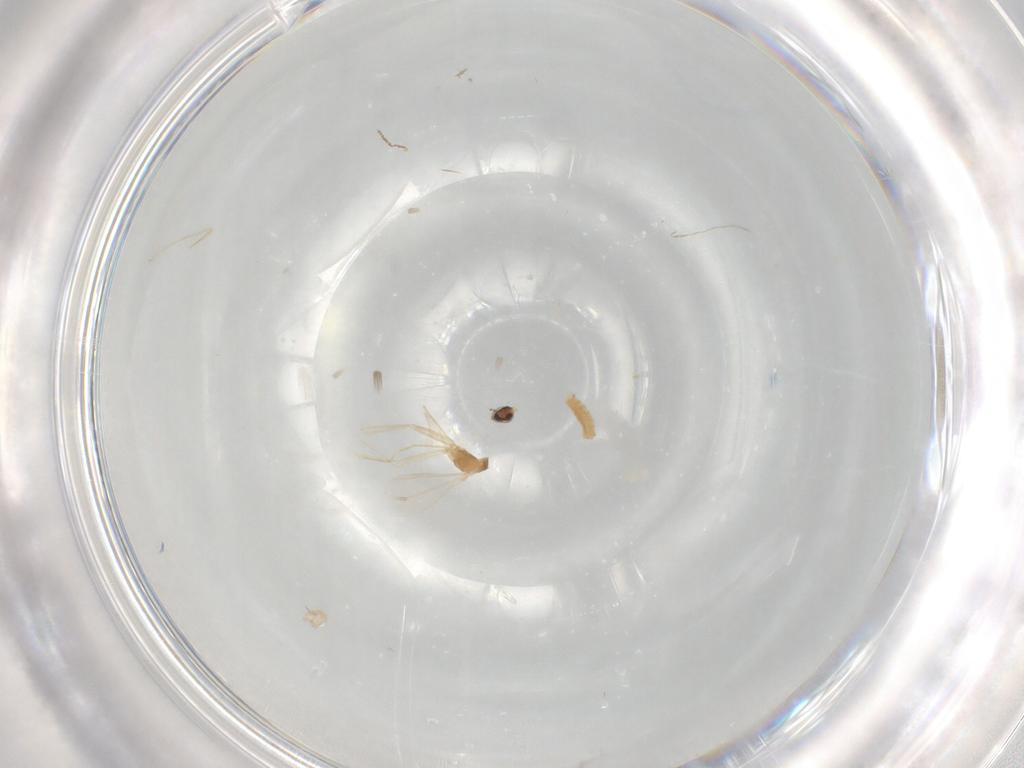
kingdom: Animalia
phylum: Arthropoda
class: Insecta
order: Diptera
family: Cecidomyiidae
